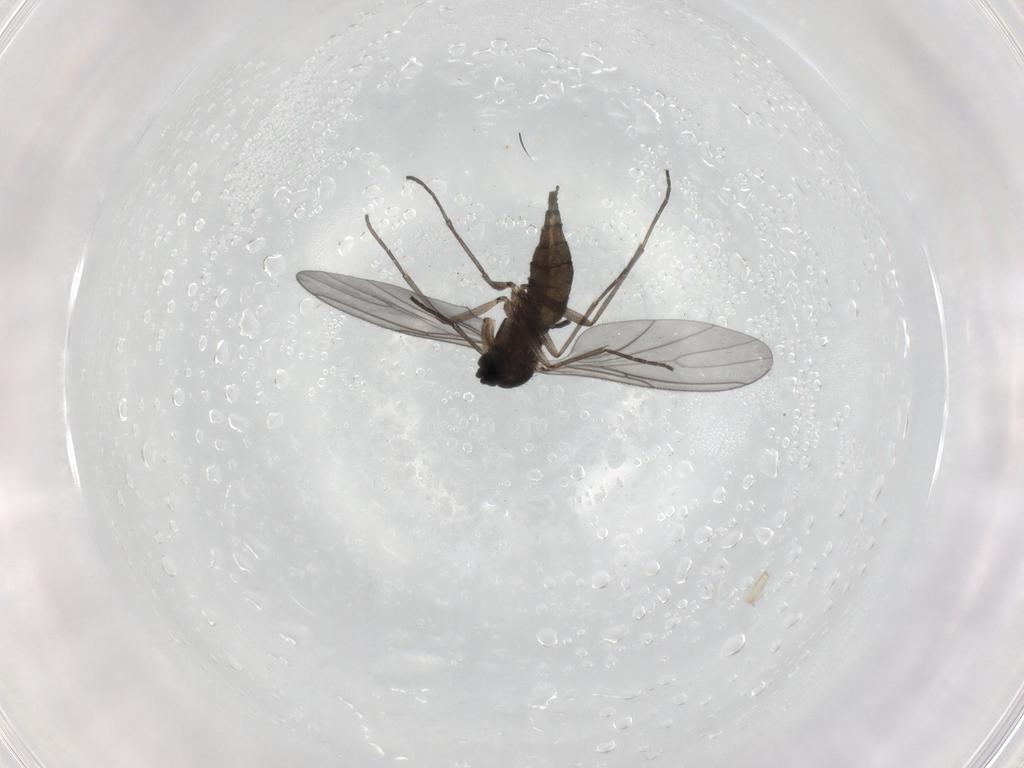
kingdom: Animalia
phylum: Arthropoda
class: Insecta
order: Diptera
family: Sciaridae
